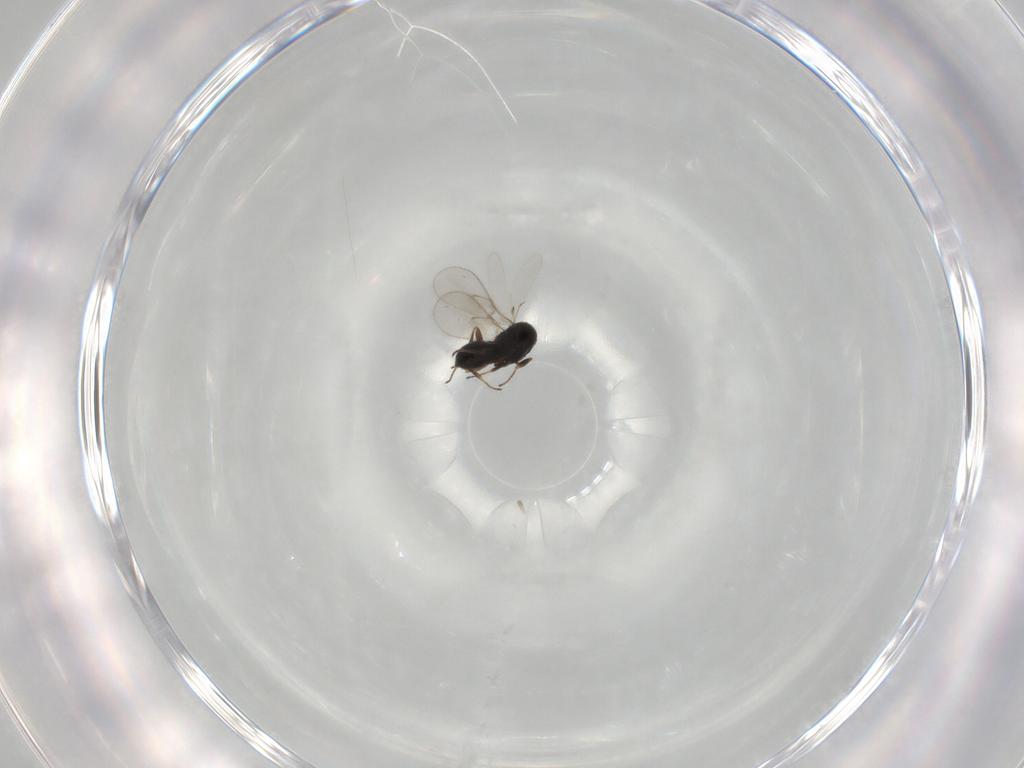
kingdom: Animalia
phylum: Arthropoda
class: Insecta
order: Hymenoptera
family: Scelionidae
